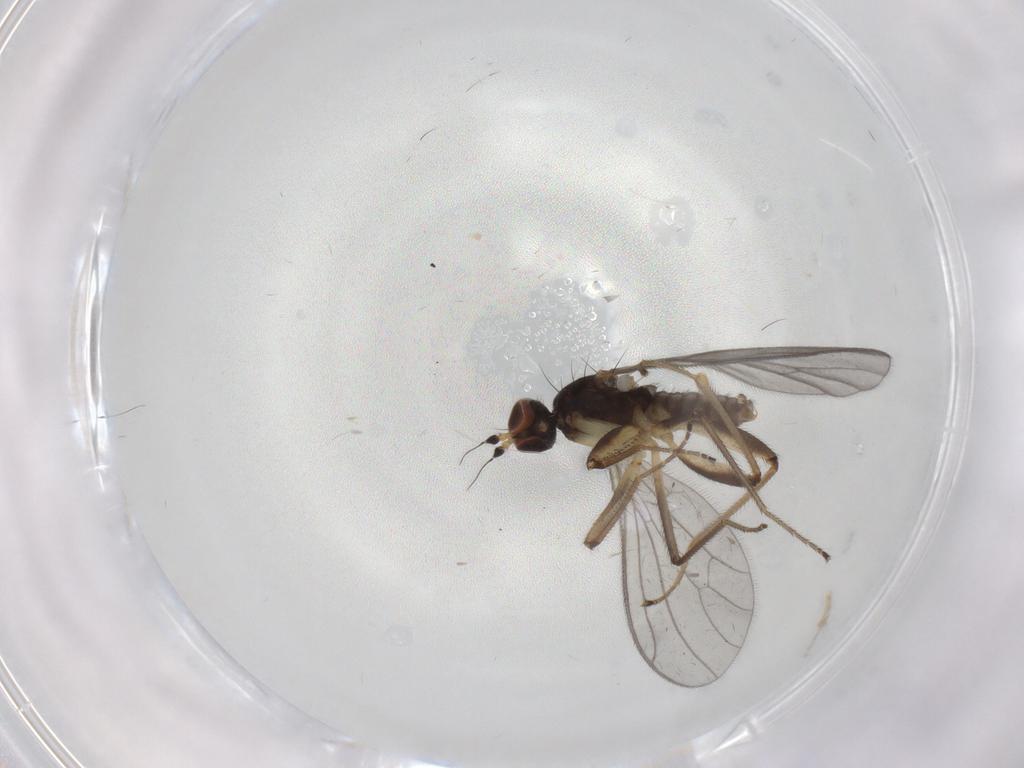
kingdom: Animalia
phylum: Arthropoda
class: Insecta
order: Diptera
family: Empididae
